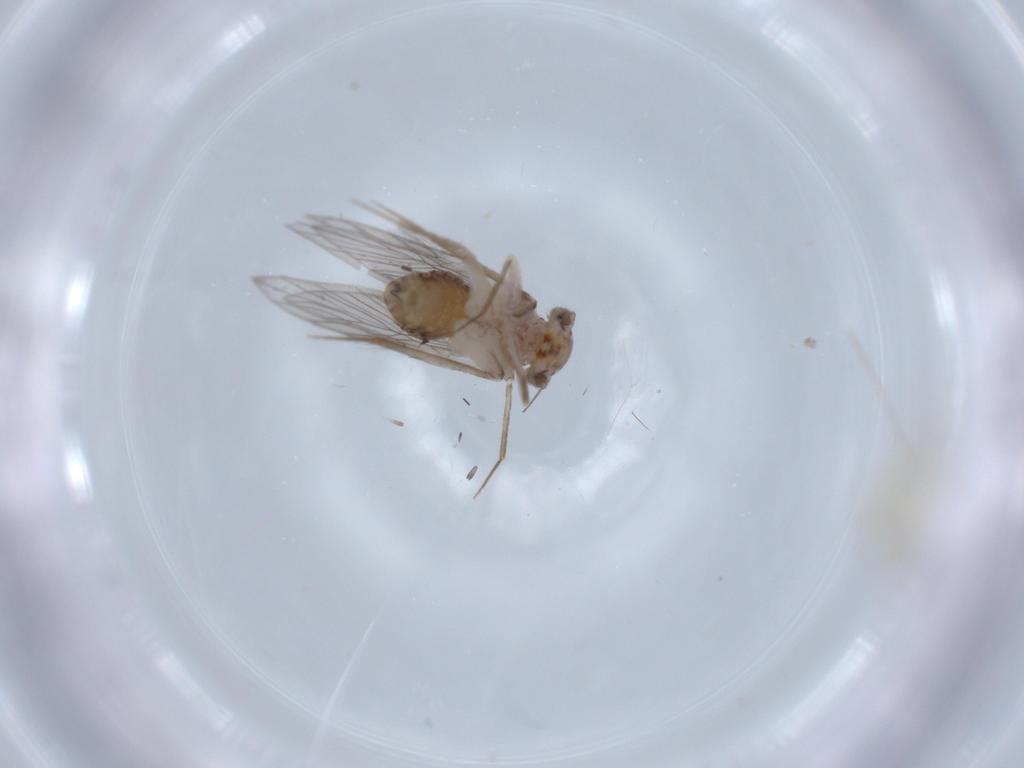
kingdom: Animalia
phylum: Arthropoda
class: Insecta
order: Psocodea
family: Lepidopsocidae
